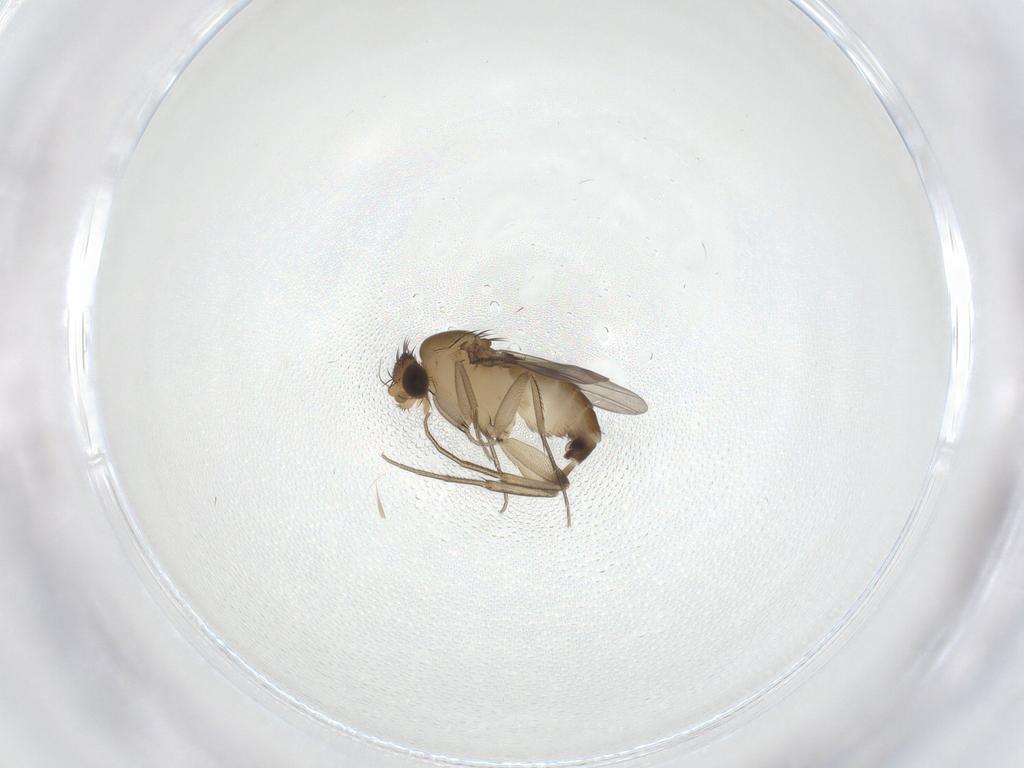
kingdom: Animalia
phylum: Arthropoda
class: Insecta
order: Diptera
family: Phoridae
